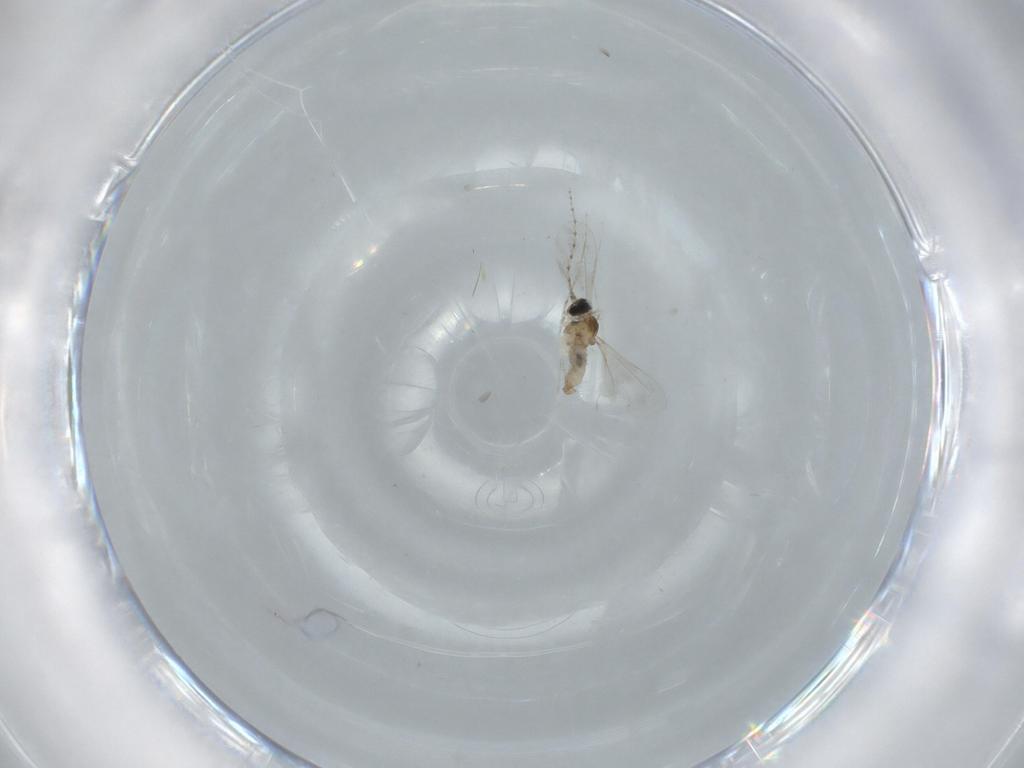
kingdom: Animalia
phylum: Arthropoda
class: Insecta
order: Diptera
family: Cecidomyiidae
